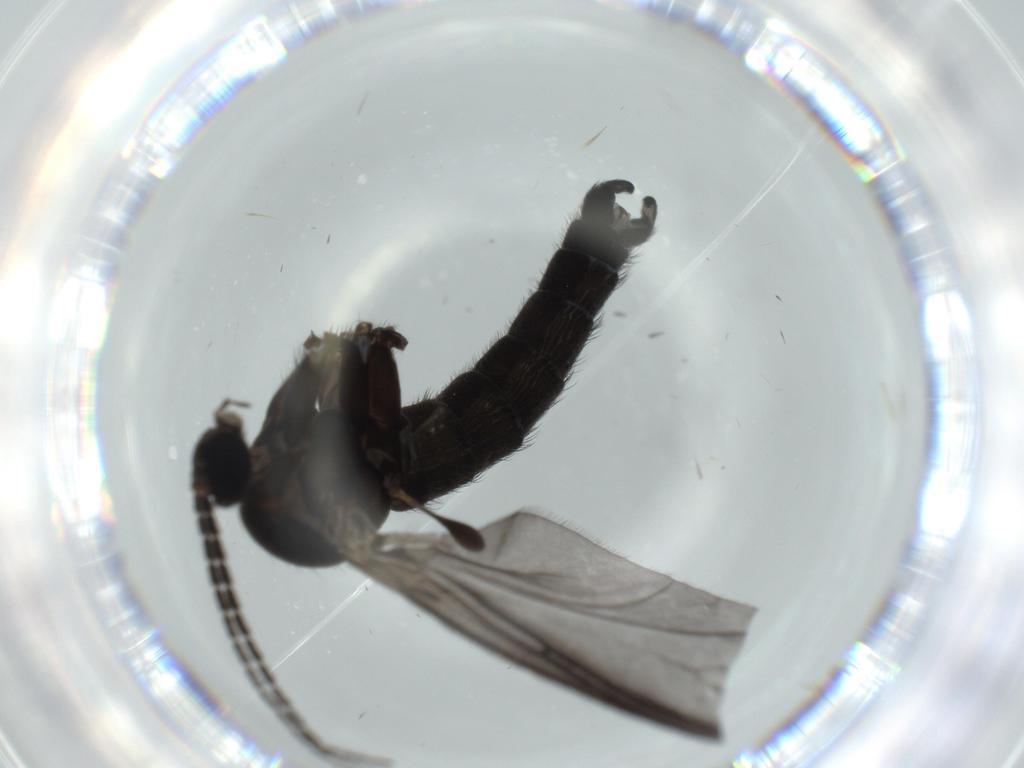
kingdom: Animalia
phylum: Arthropoda
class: Insecta
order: Diptera
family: Sciaridae
